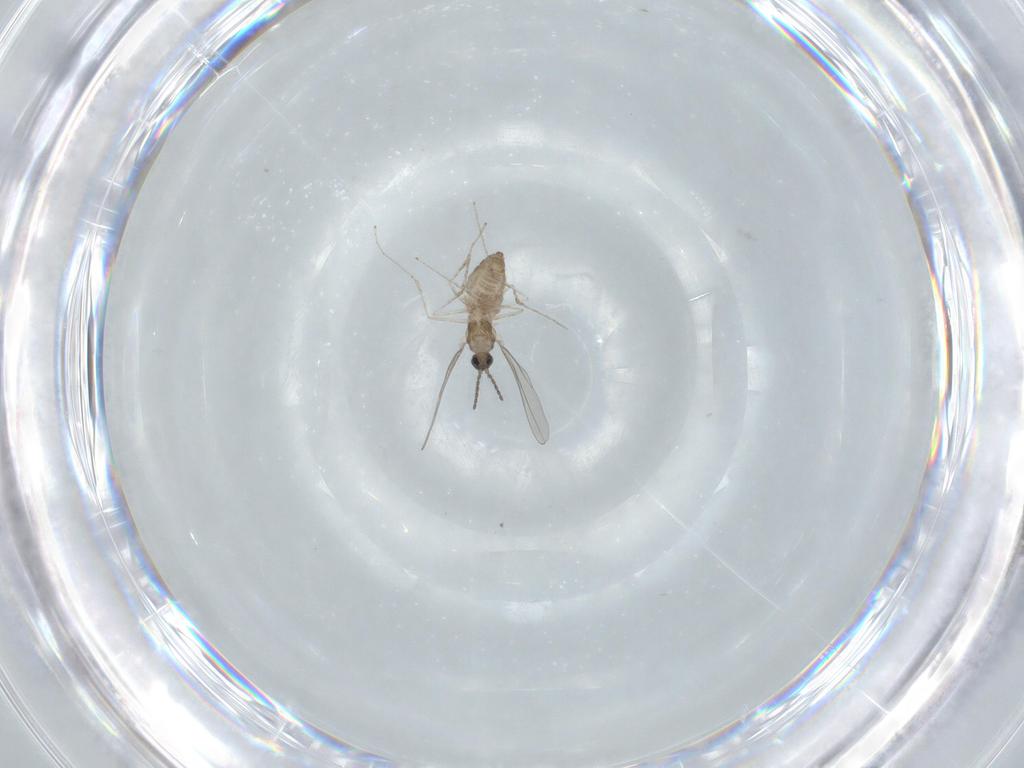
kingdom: Animalia
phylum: Arthropoda
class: Insecta
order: Diptera
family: Cecidomyiidae
